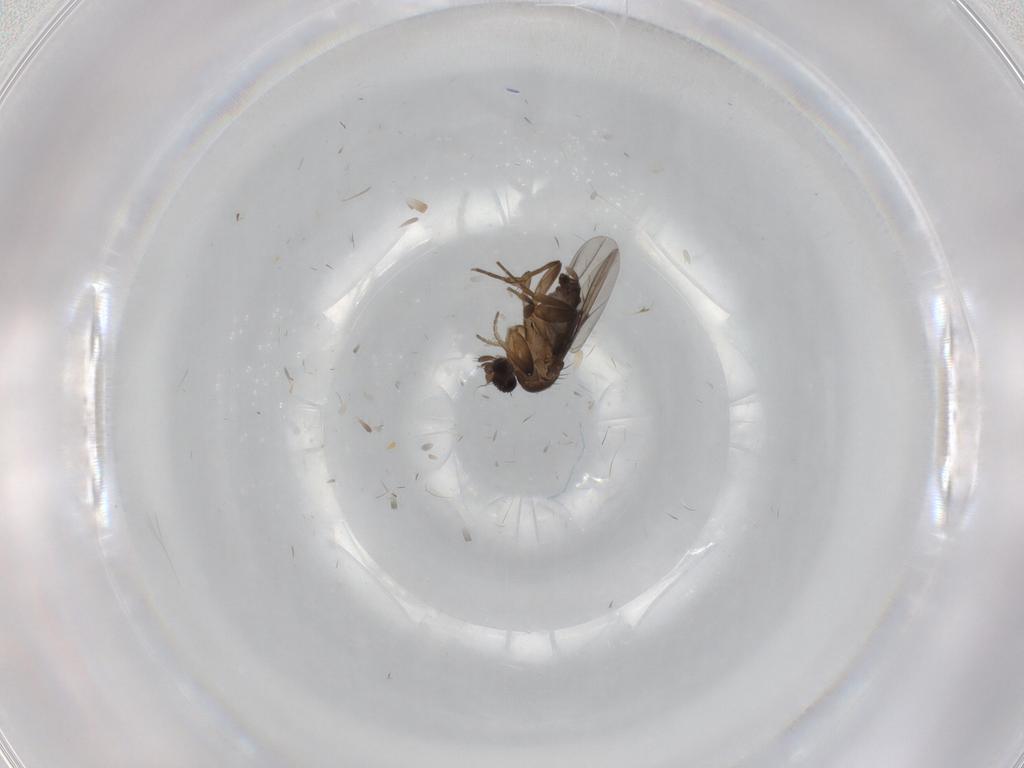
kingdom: Animalia
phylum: Arthropoda
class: Insecta
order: Diptera
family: Phoridae
